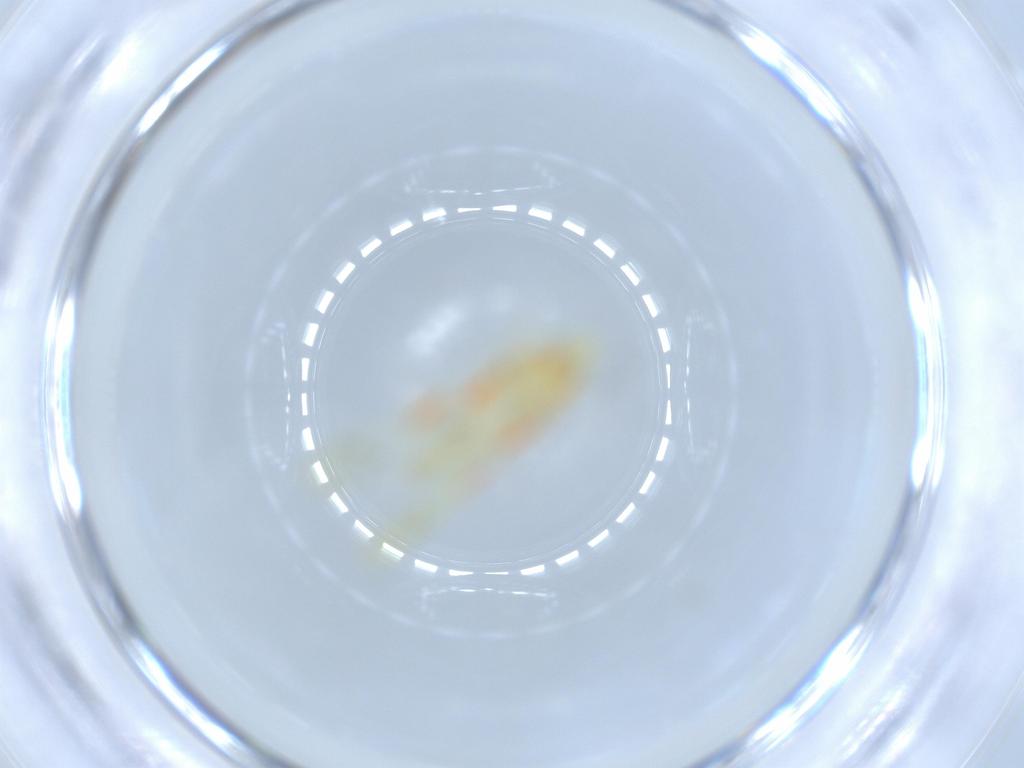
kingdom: Animalia
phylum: Arthropoda
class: Insecta
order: Hemiptera
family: Cicadellidae
